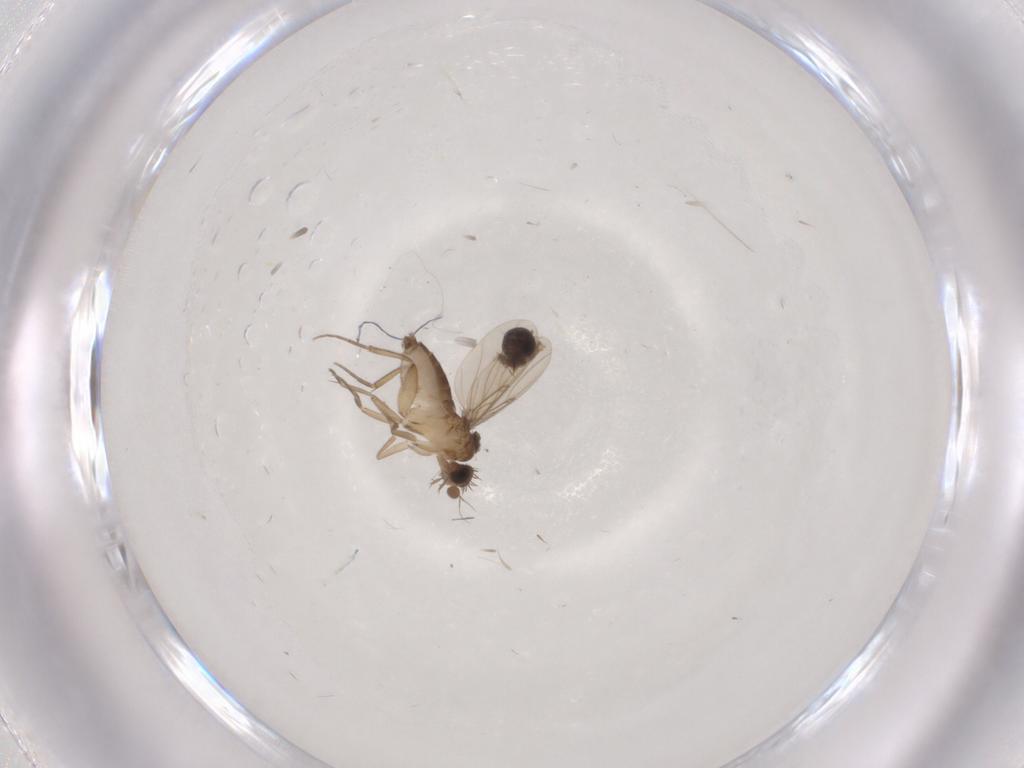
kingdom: Animalia
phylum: Arthropoda
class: Insecta
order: Diptera
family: Phoridae
